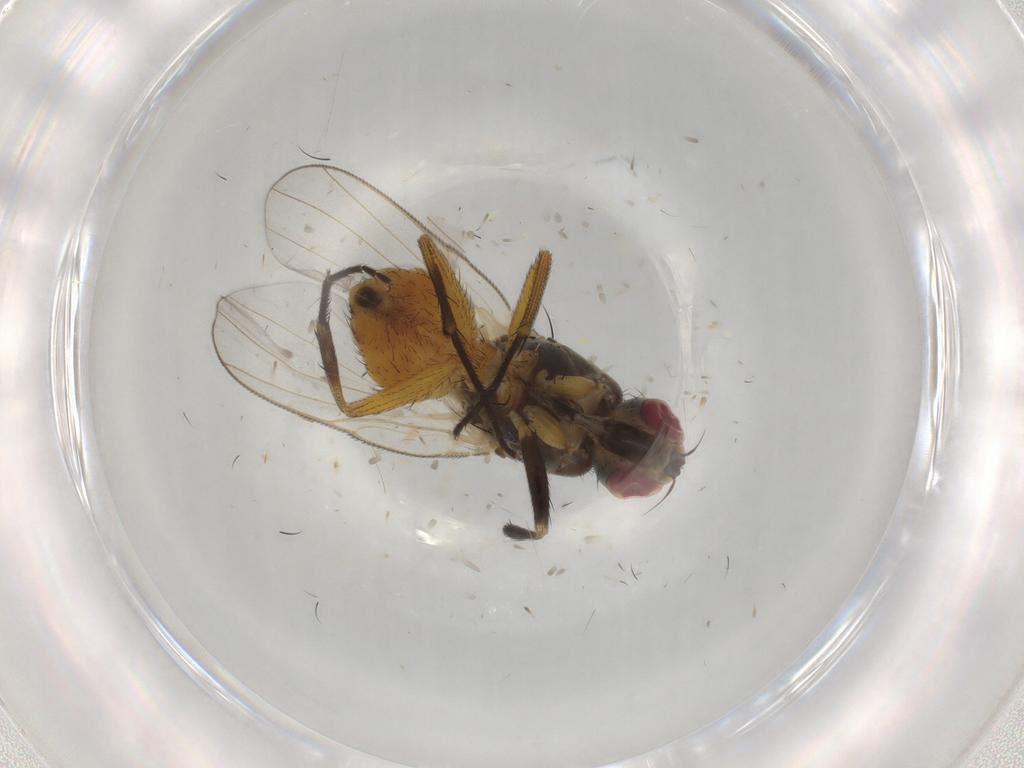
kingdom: Animalia
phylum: Arthropoda
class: Insecta
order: Diptera
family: Muscidae
